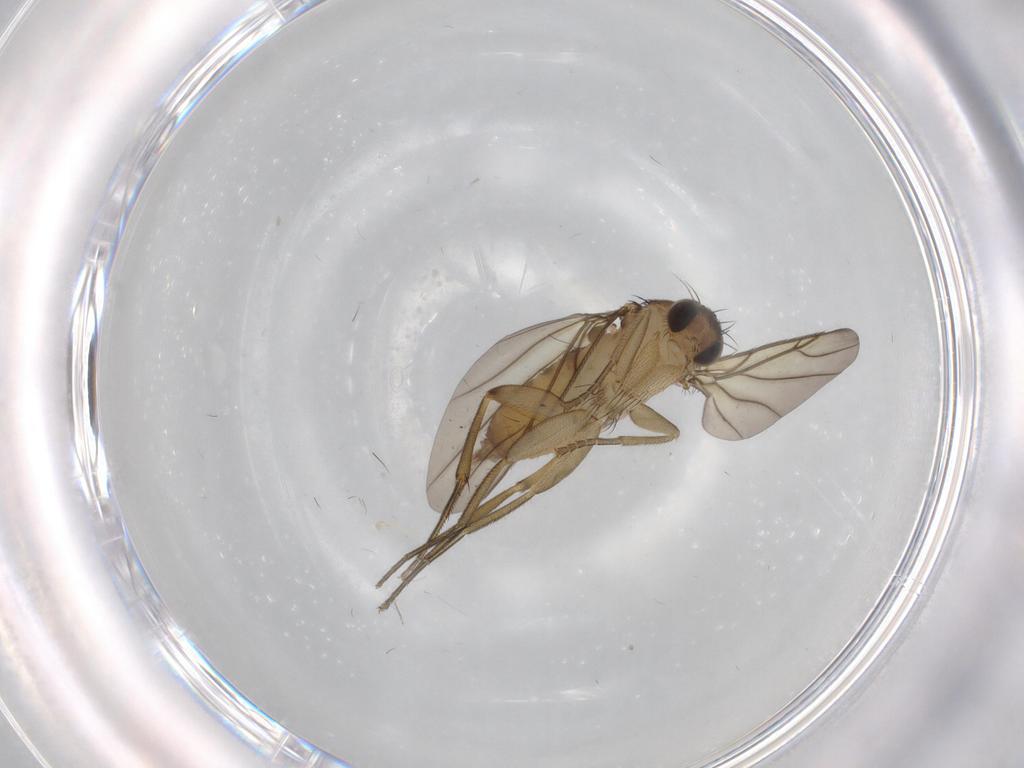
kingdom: Animalia
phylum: Arthropoda
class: Insecta
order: Diptera
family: Phoridae
